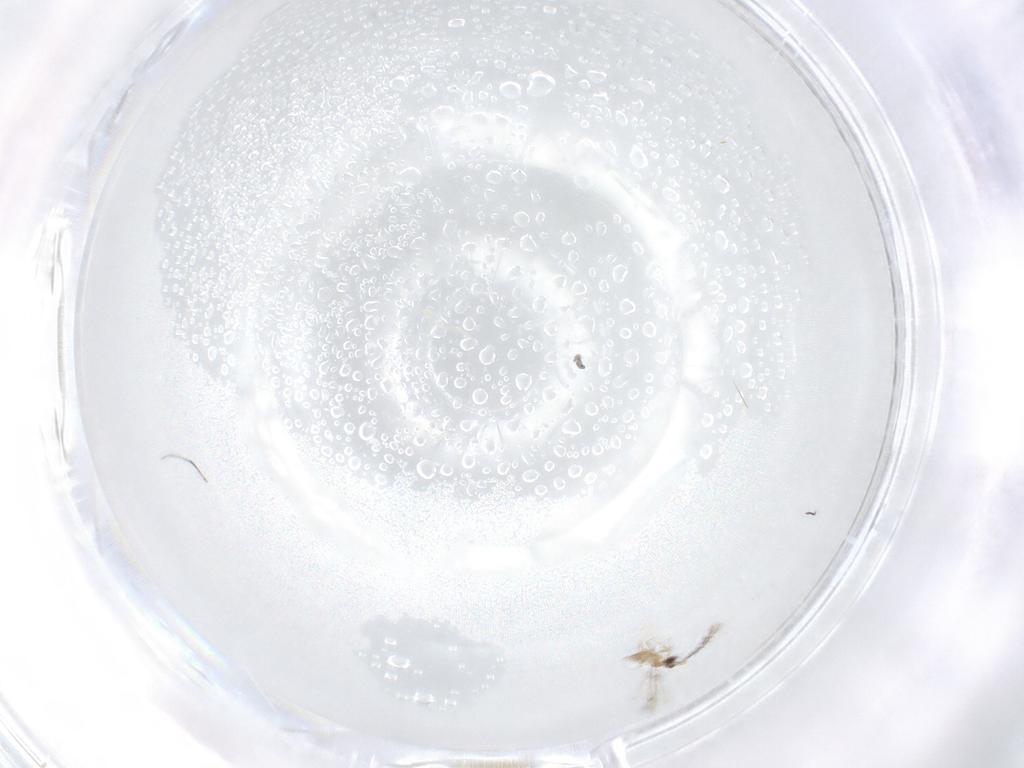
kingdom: Animalia
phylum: Arthropoda
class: Insecta
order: Hymenoptera
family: Mymaridae
